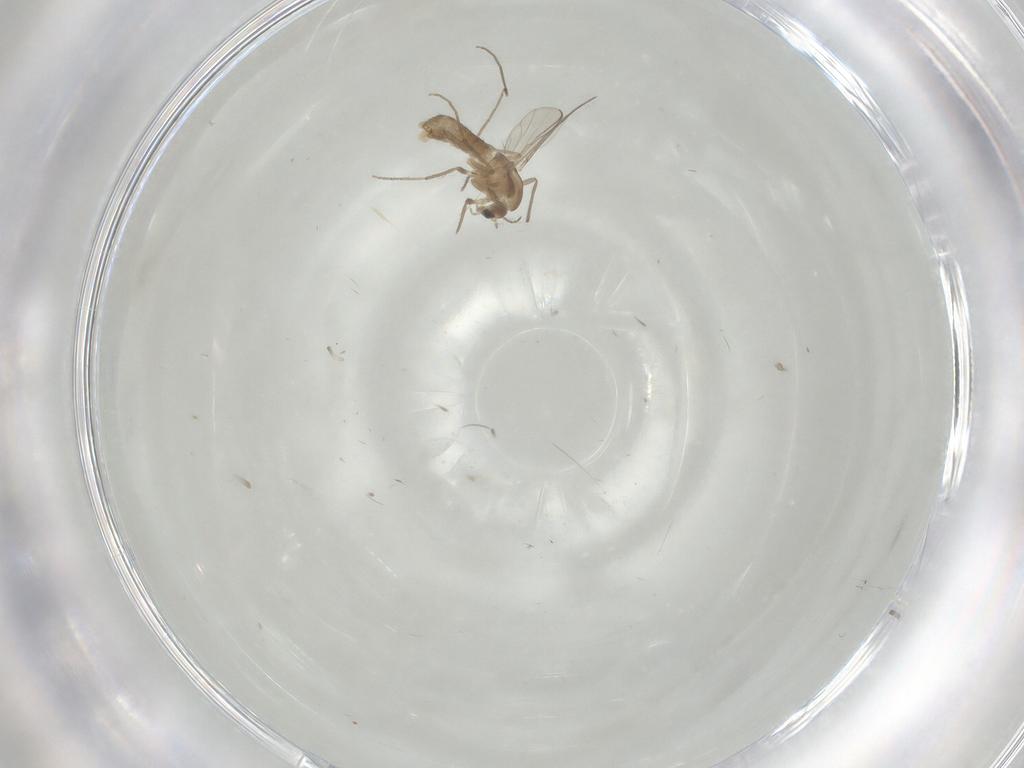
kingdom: Animalia
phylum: Arthropoda
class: Insecta
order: Diptera
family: Chironomidae
